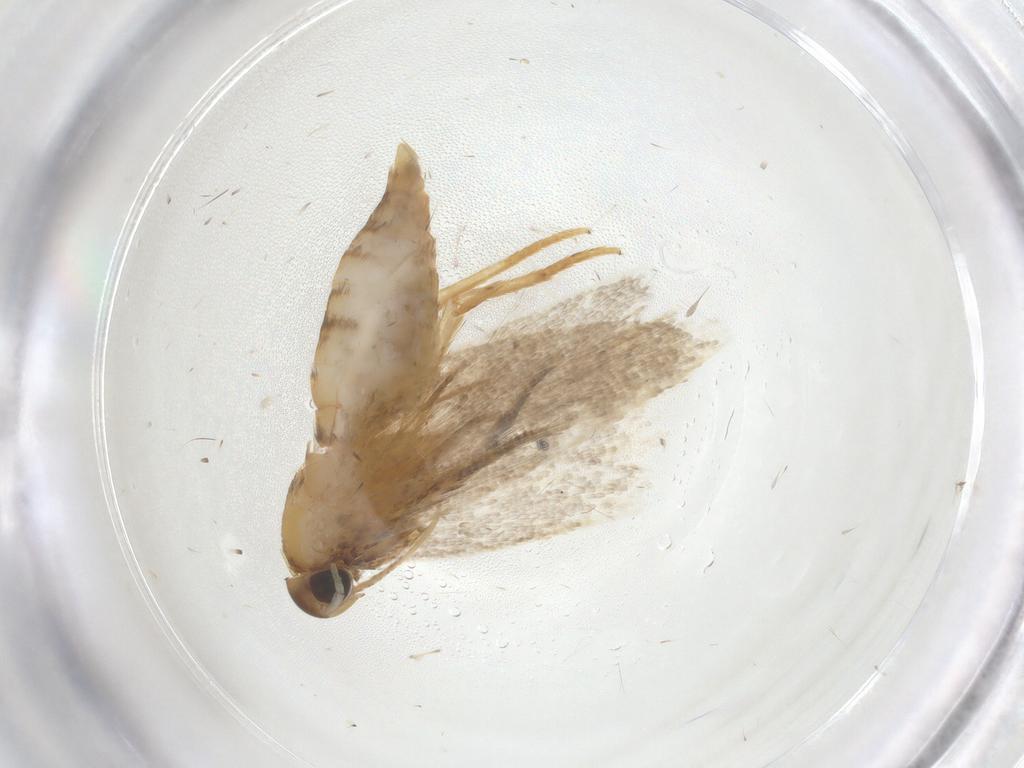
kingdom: Animalia
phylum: Arthropoda
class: Insecta
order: Lepidoptera
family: Oecophoridae
